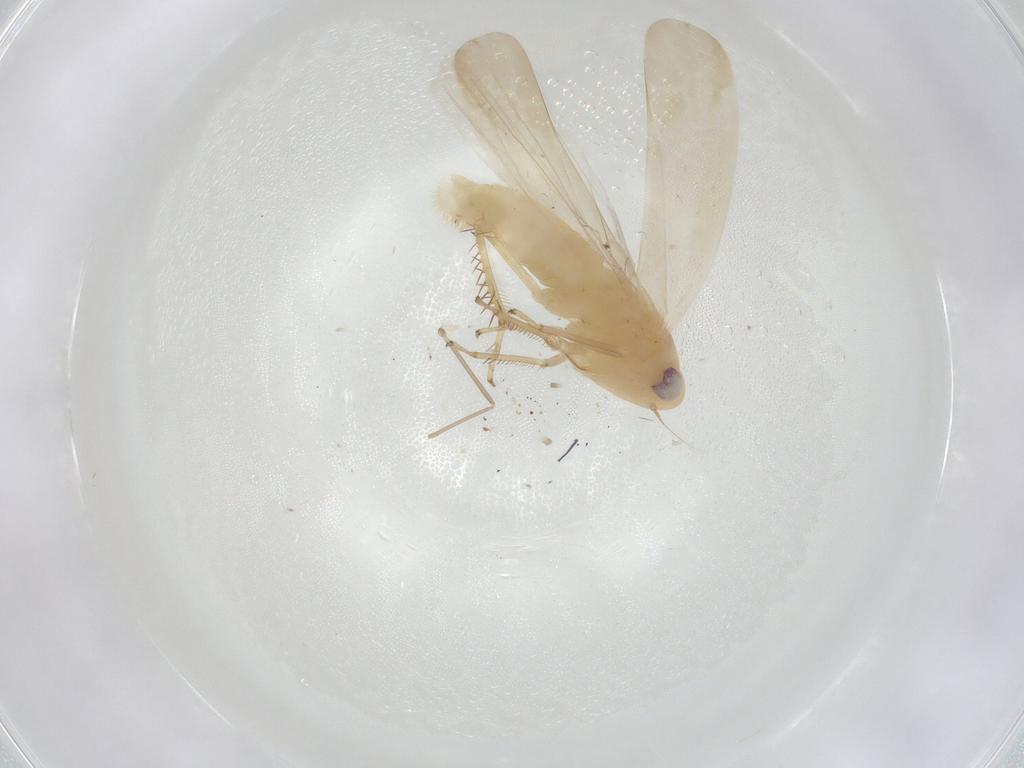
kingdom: Animalia
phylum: Arthropoda
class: Insecta
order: Hemiptera
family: Cicadellidae
